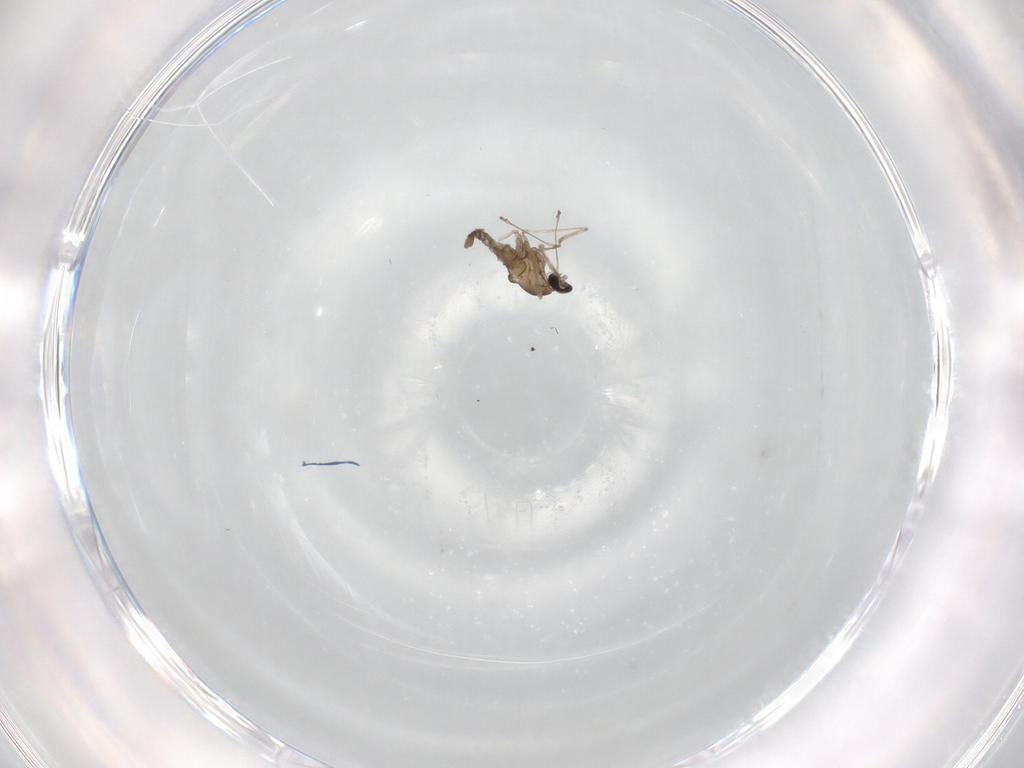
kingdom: Animalia
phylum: Arthropoda
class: Insecta
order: Diptera
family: Cecidomyiidae
